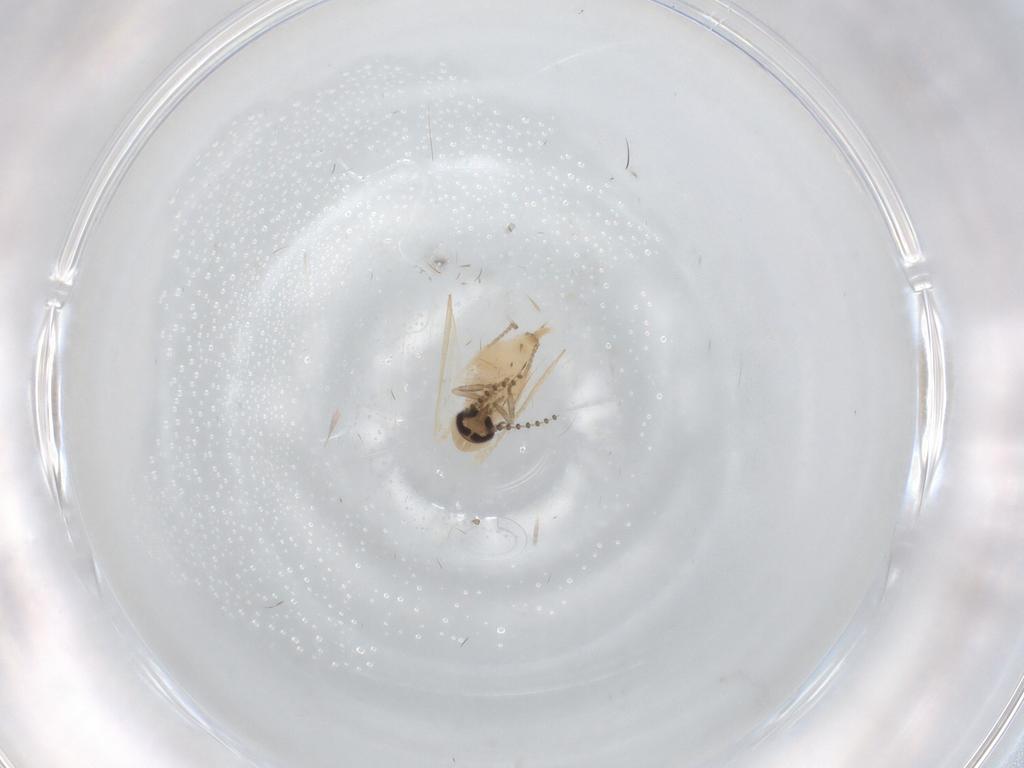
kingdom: Animalia
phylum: Arthropoda
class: Insecta
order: Diptera
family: Psychodidae
